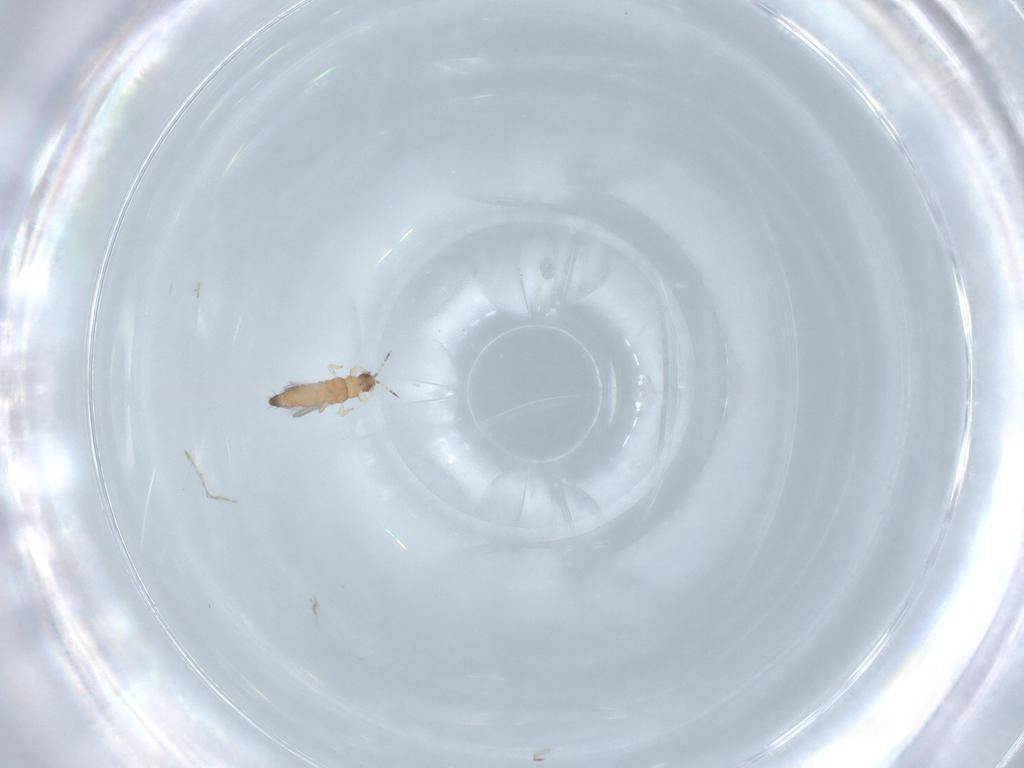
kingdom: Animalia
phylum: Arthropoda
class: Insecta
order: Thysanoptera
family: Thripidae
